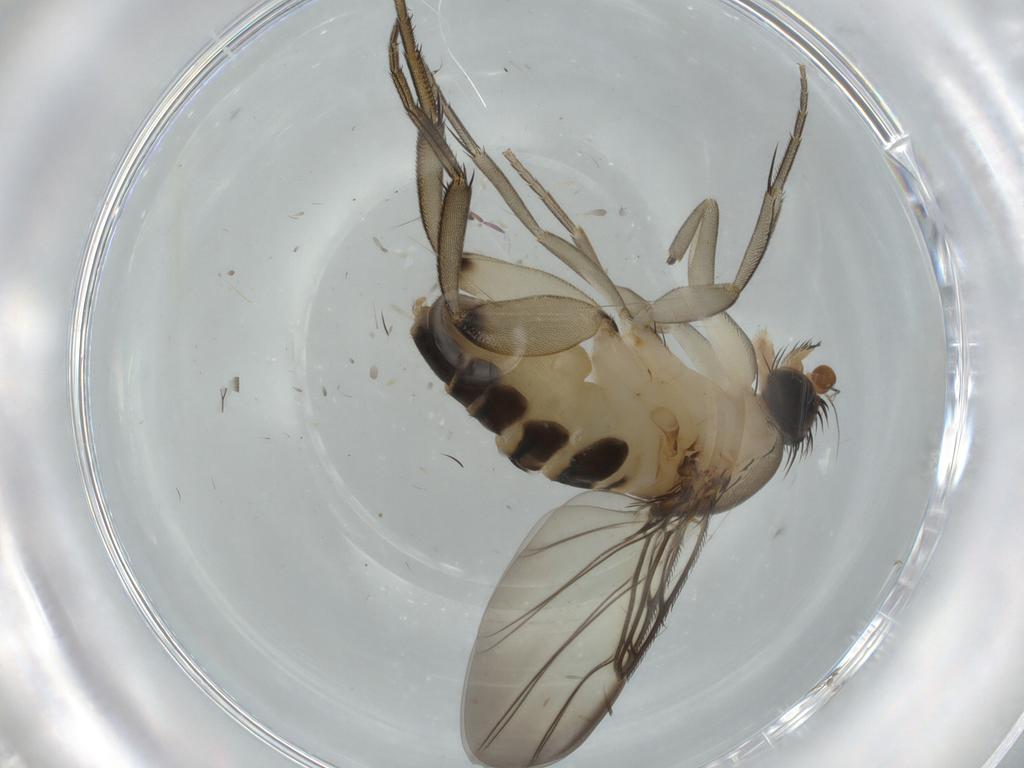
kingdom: Animalia
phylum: Arthropoda
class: Insecta
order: Diptera
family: Phoridae
